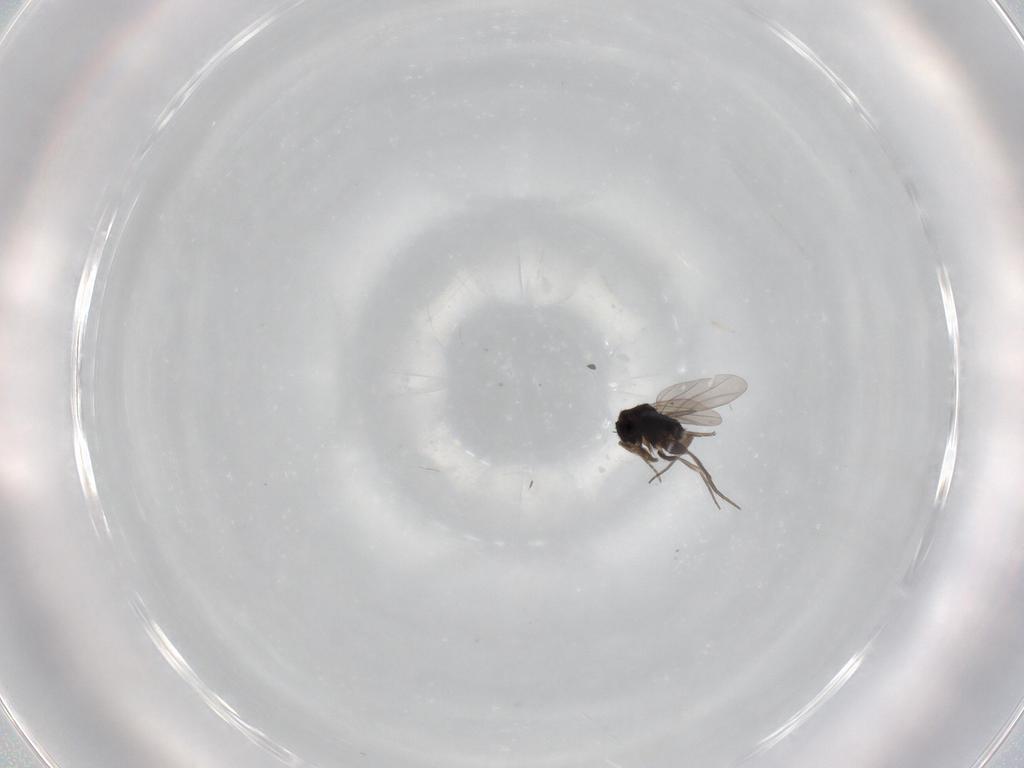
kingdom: Animalia
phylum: Arthropoda
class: Insecta
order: Diptera
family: Phoridae
